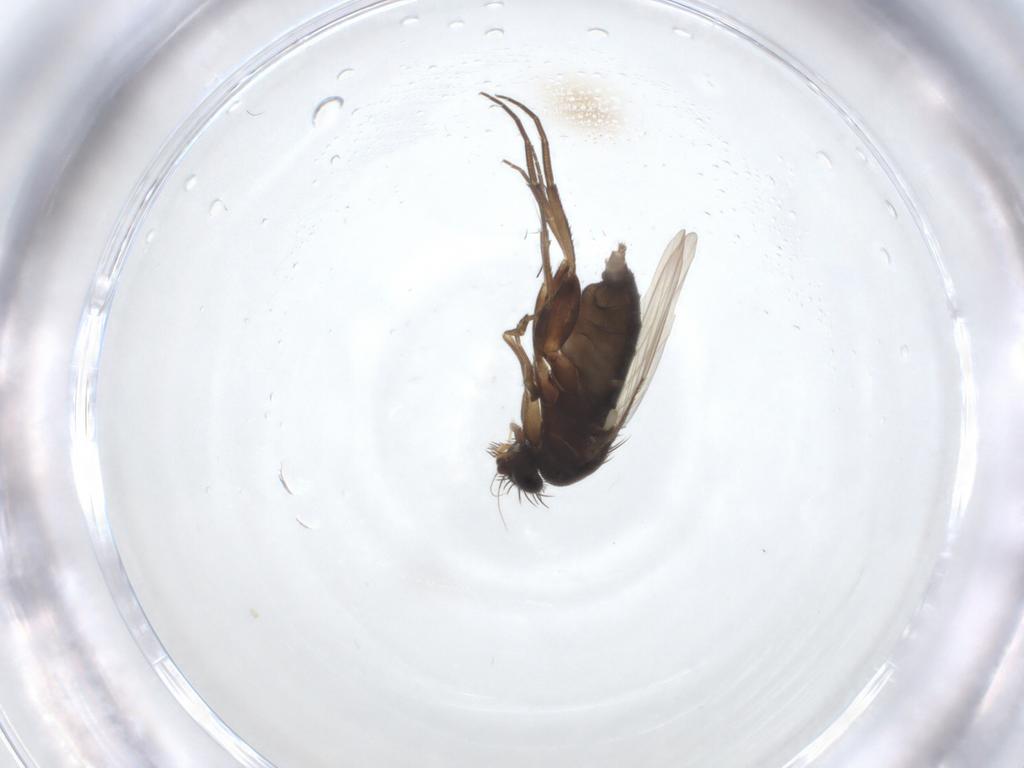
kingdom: Animalia
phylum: Arthropoda
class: Insecta
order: Diptera
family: Phoridae
